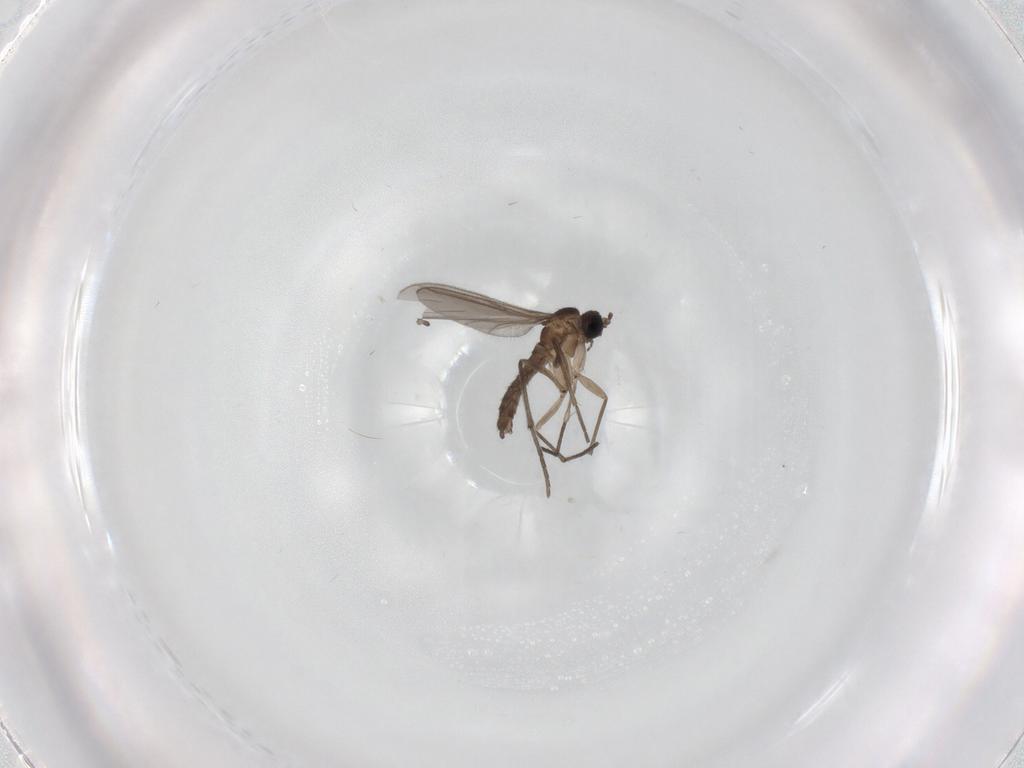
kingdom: Animalia
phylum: Arthropoda
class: Insecta
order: Diptera
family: Sciaridae
